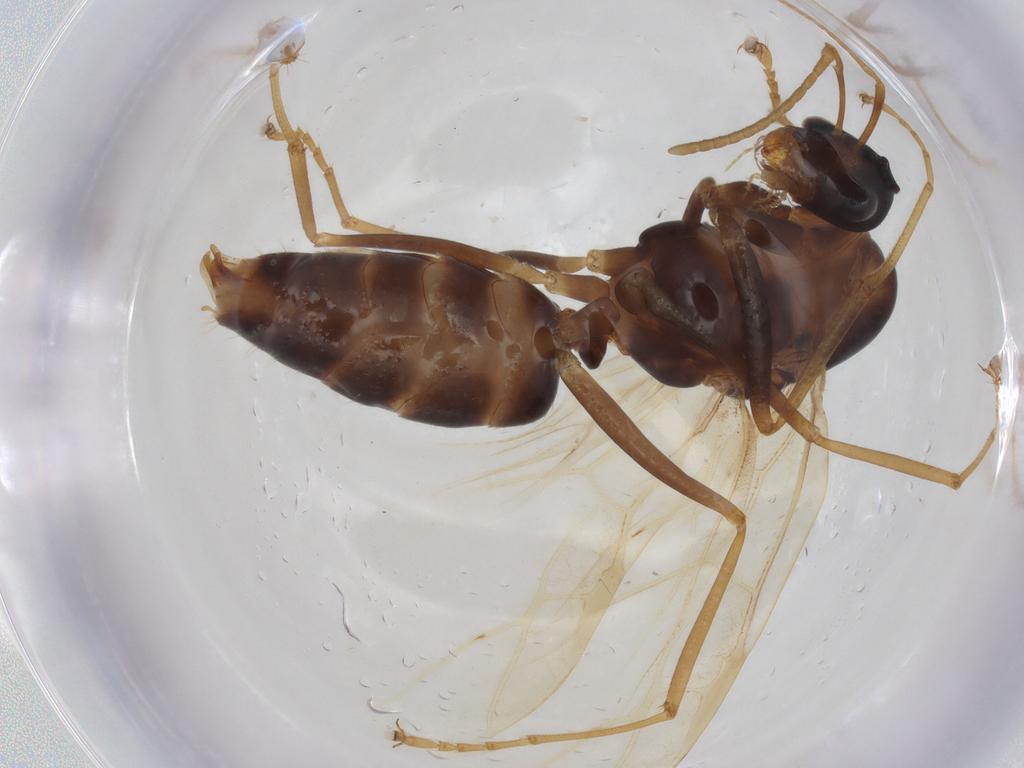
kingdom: Animalia
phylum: Arthropoda
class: Insecta
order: Hymenoptera
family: Formicidae
